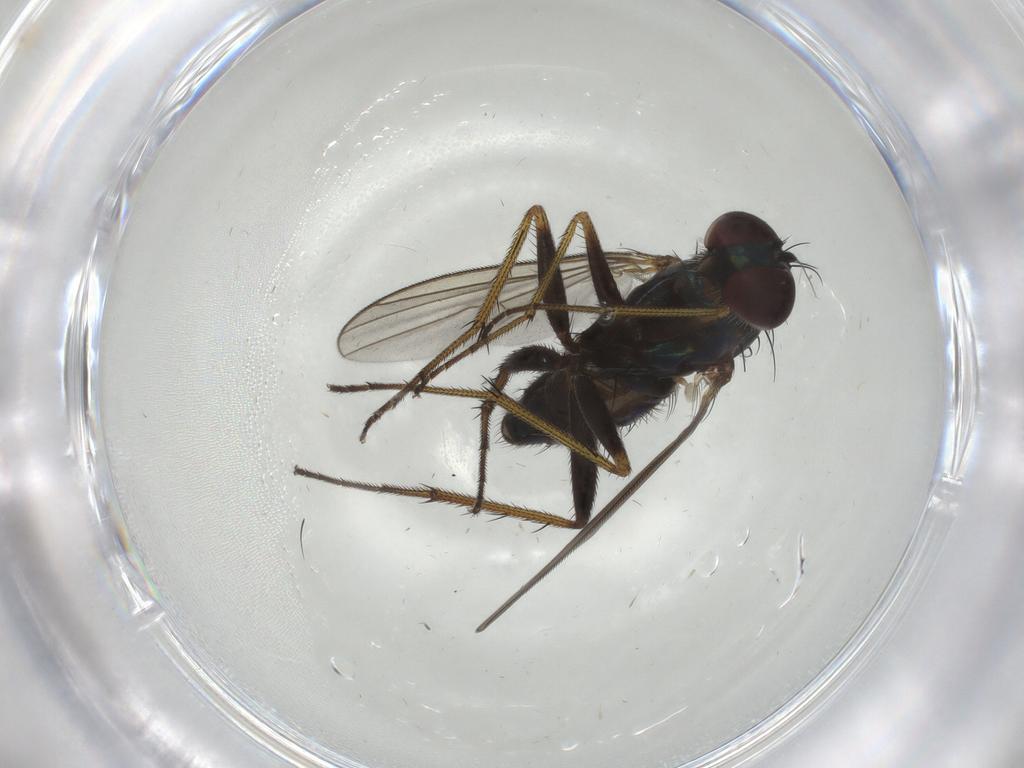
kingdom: Animalia
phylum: Arthropoda
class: Insecta
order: Diptera
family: Dolichopodidae
